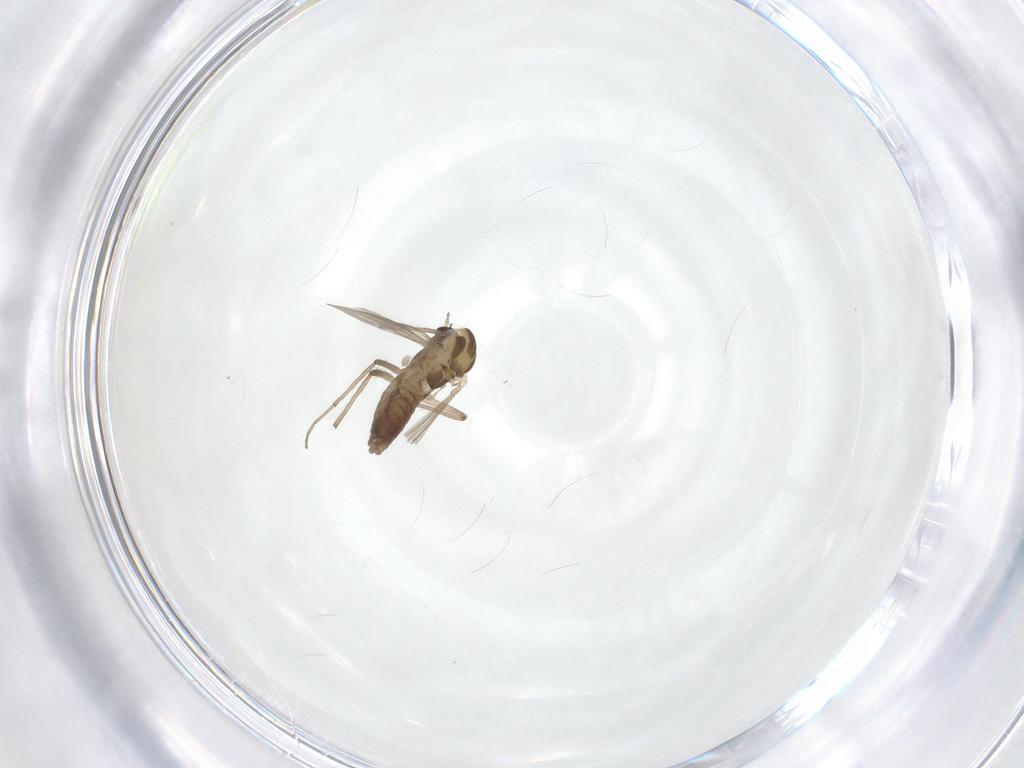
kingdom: Animalia
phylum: Arthropoda
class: Insecta
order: Diptera
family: Chironomidae
